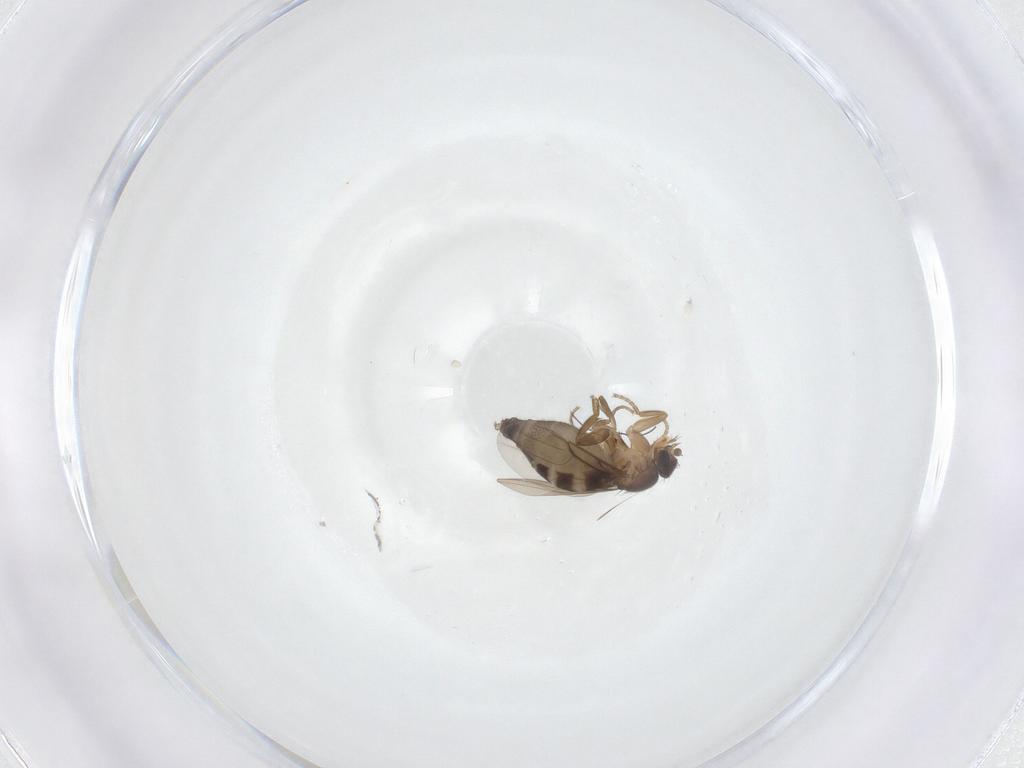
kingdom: Animalia
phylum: Arthropoda
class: Insecta
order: Diptera
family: Phoridae
